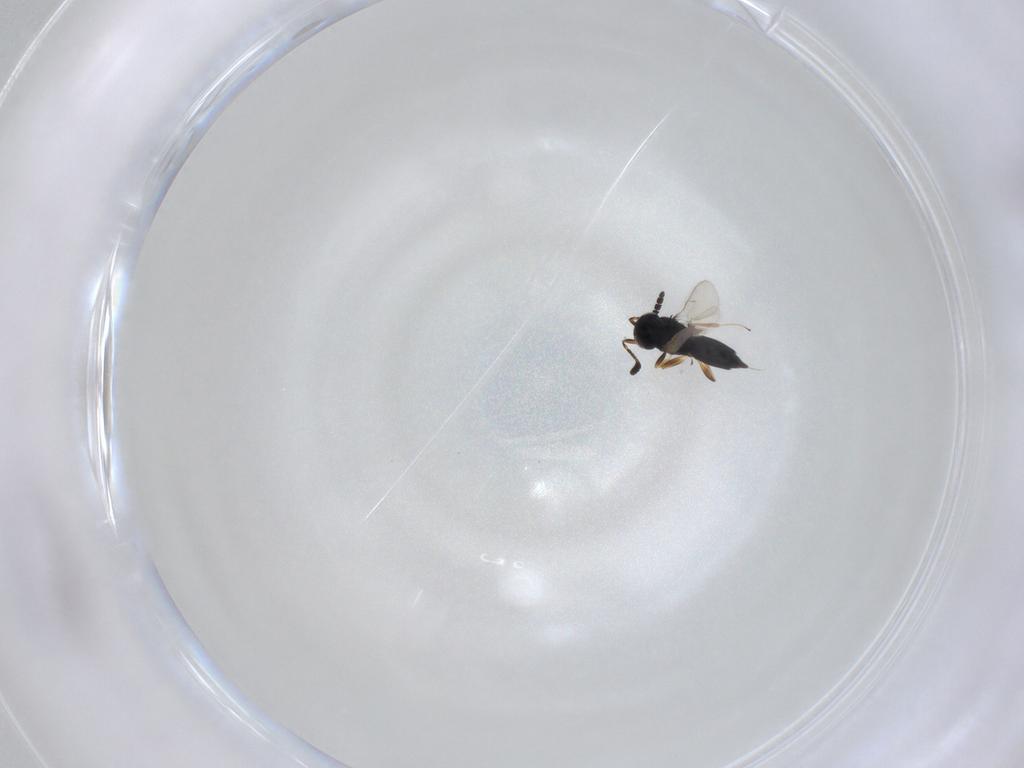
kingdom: Animalia
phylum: Arthropoda
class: Insecta
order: Hymenoptera
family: Scelionidae
